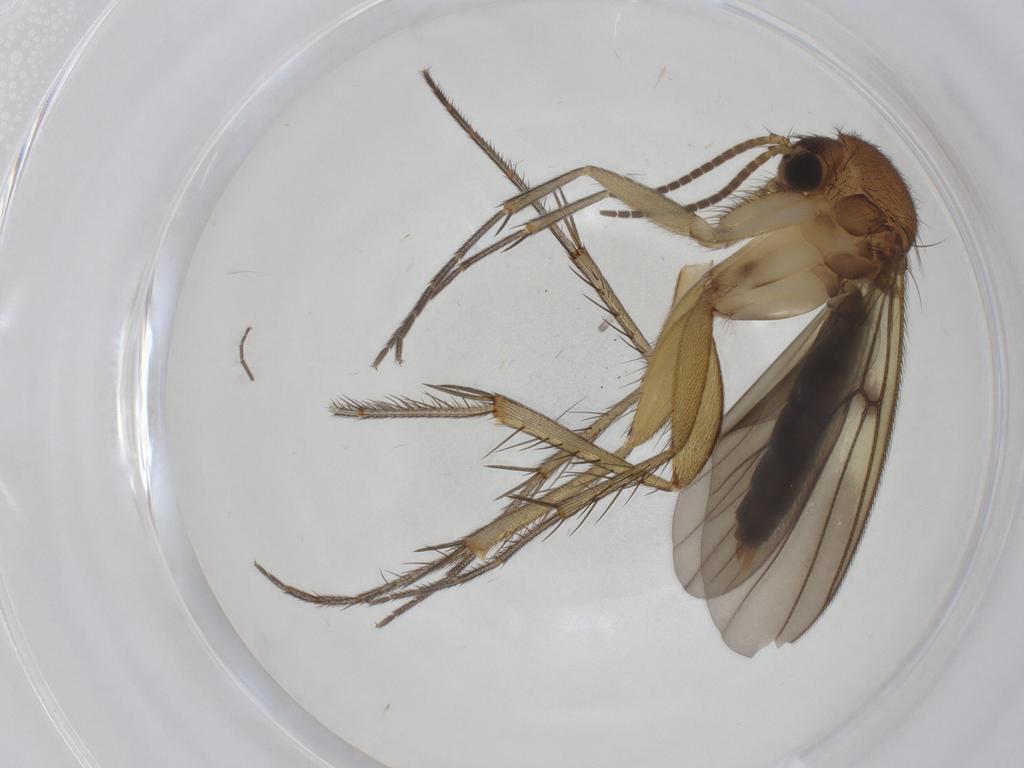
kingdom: Animalia
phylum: Arthropoda
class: Insecta
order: Diptera
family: Mycetophilidae
